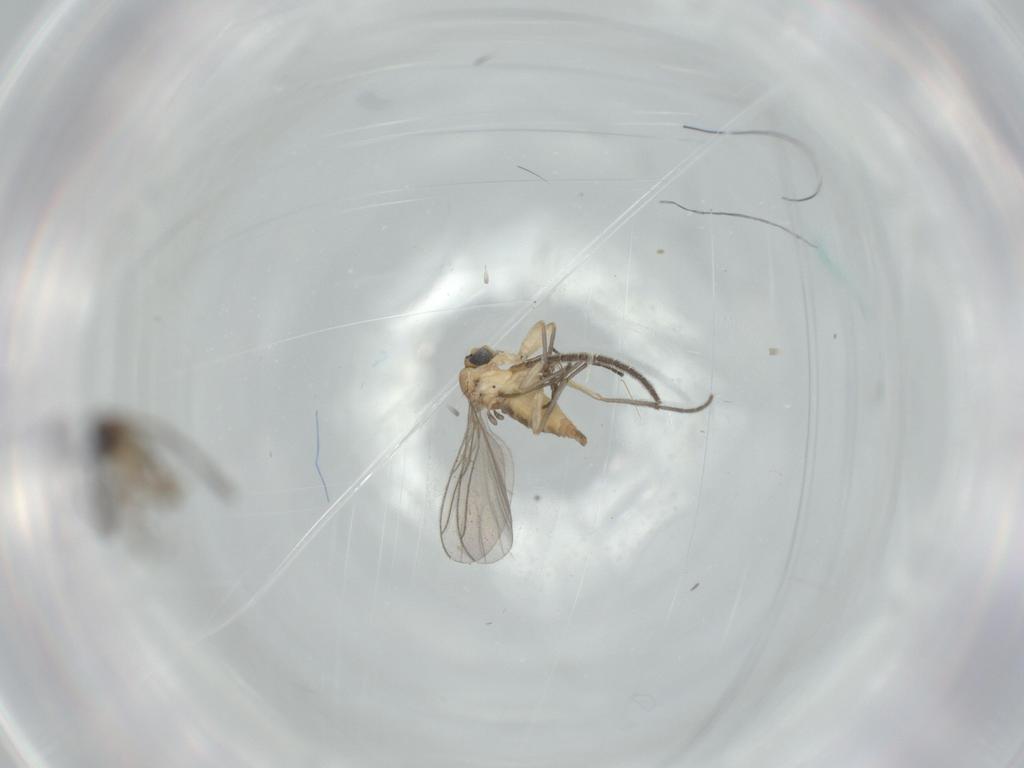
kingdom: Animalia
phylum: Arthropoda
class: Insecta
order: Diptera
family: Sciaridae
